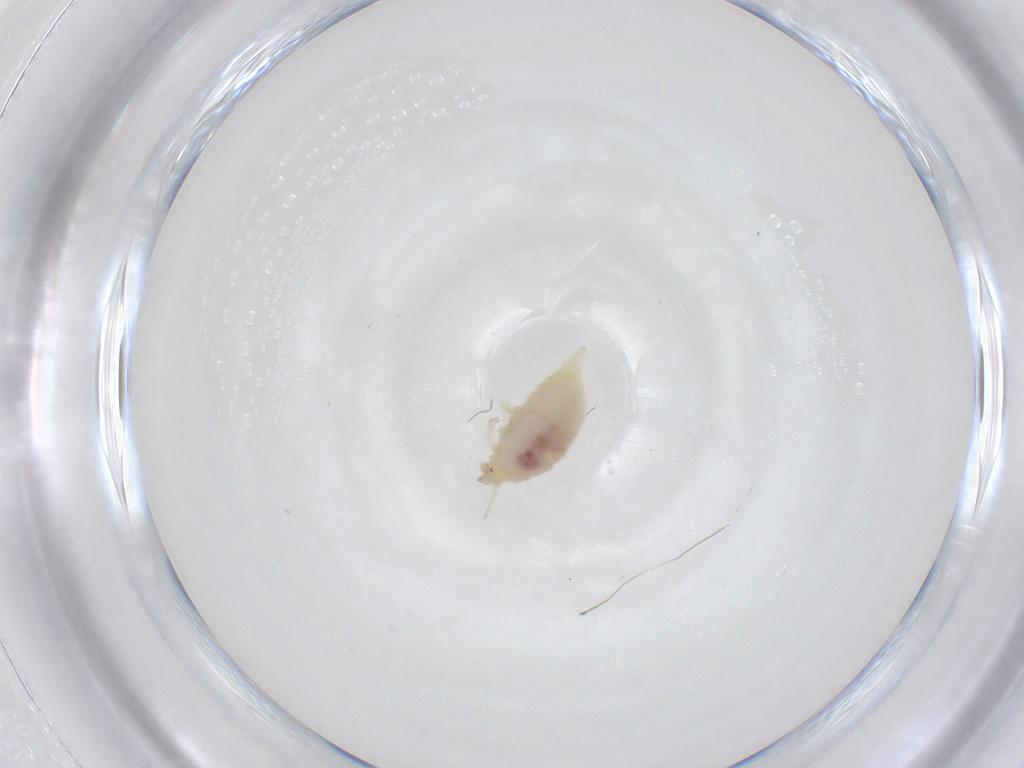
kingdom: Animalia
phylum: Arthropoda
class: Insecta
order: Neuroptera
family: Coniopterygidae
